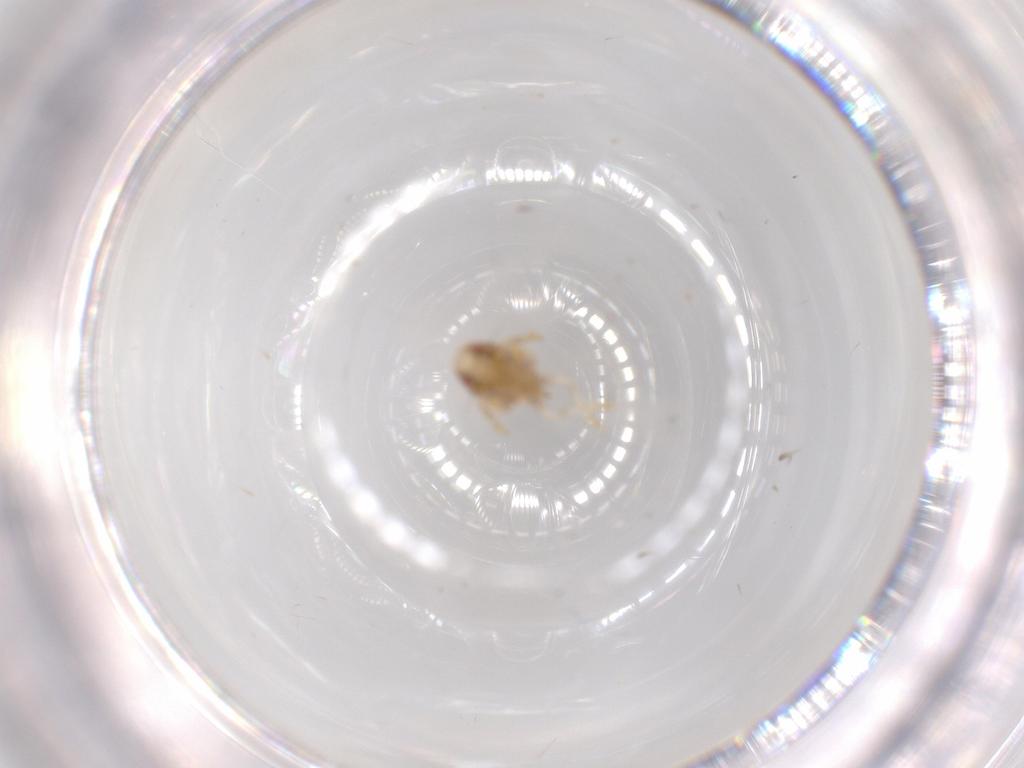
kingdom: Animalia
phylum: Arthropoda
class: Insecta
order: Hemiptera
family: Acanaloniidae
